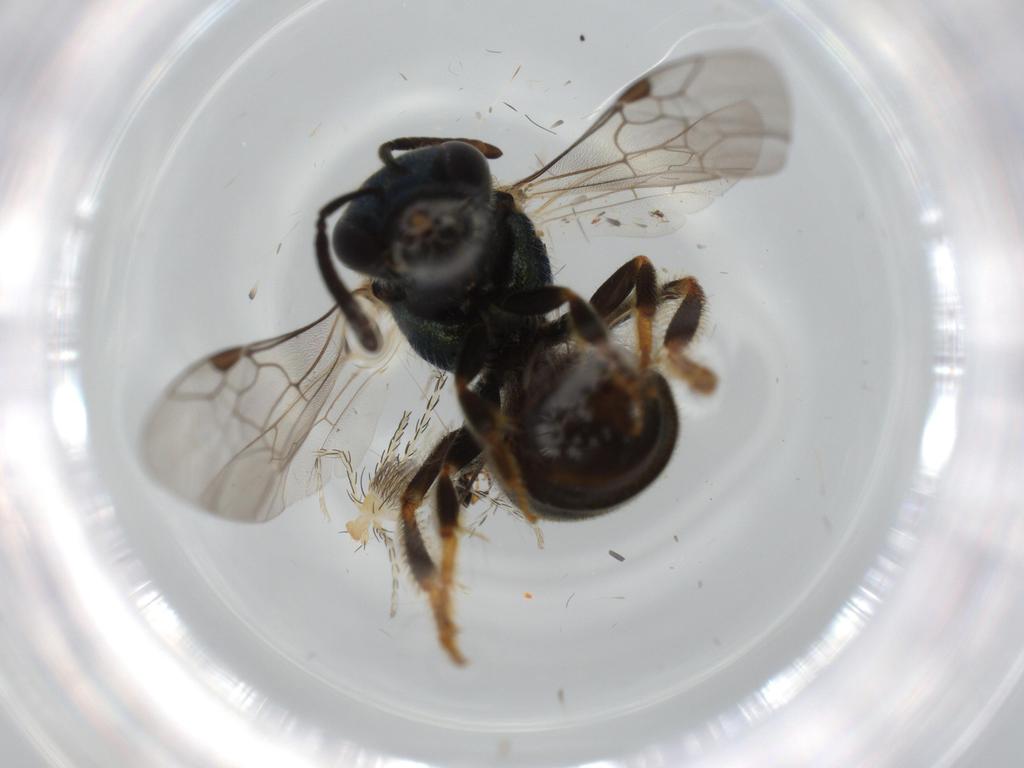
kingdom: Animalia
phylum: Arthropoda
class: Insecta
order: Hymenoptera
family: Halictidae
